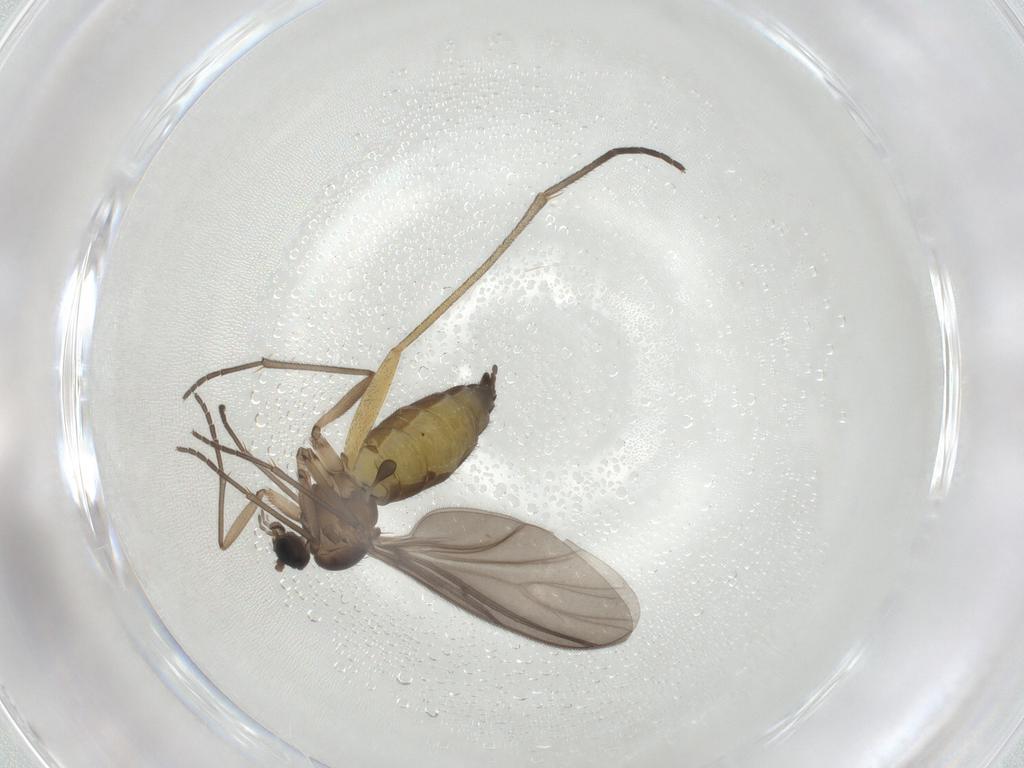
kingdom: Animalia
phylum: Arthropoda
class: Insecta
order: Diptera
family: Sciaridae
